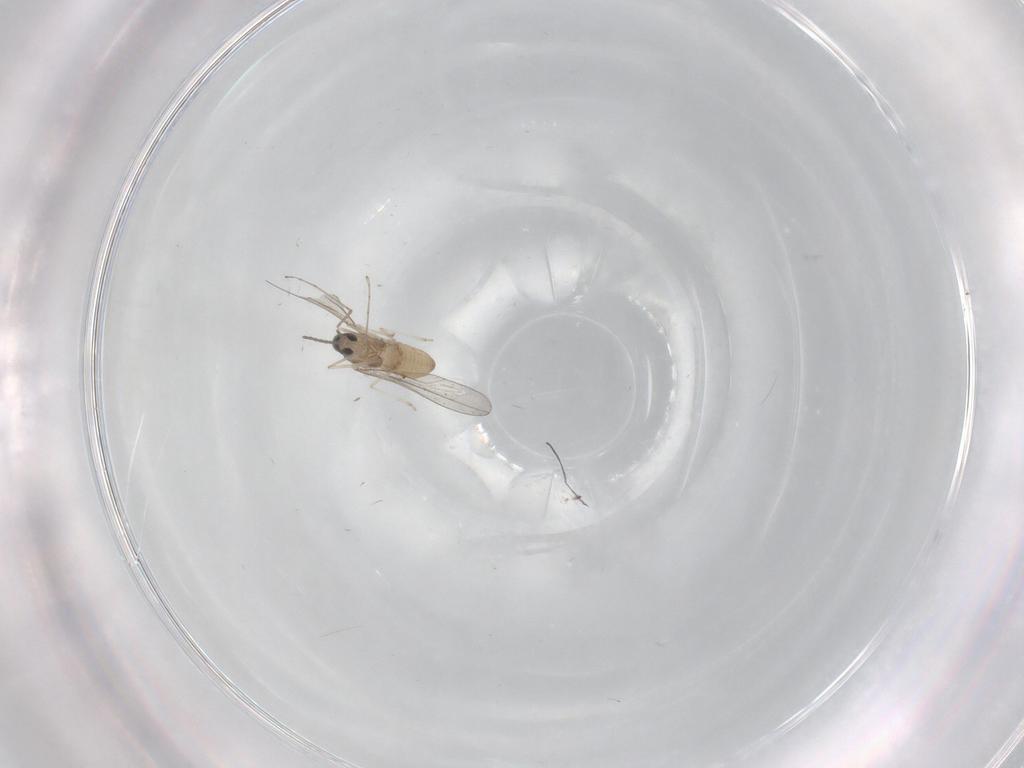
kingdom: Animalia
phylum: Arthropoda
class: Insecta
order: Diptera
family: Cecidomyiidae
